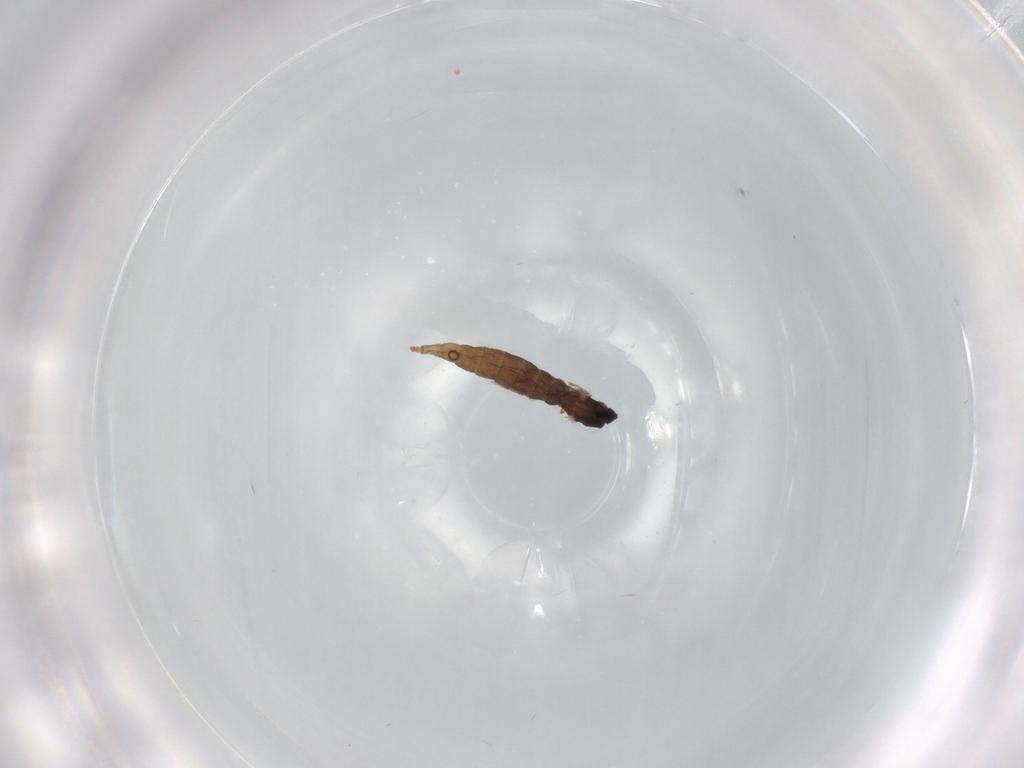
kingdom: Animalia
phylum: Arthropoda
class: Insecta
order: Diptera
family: Cecidomyiidae
